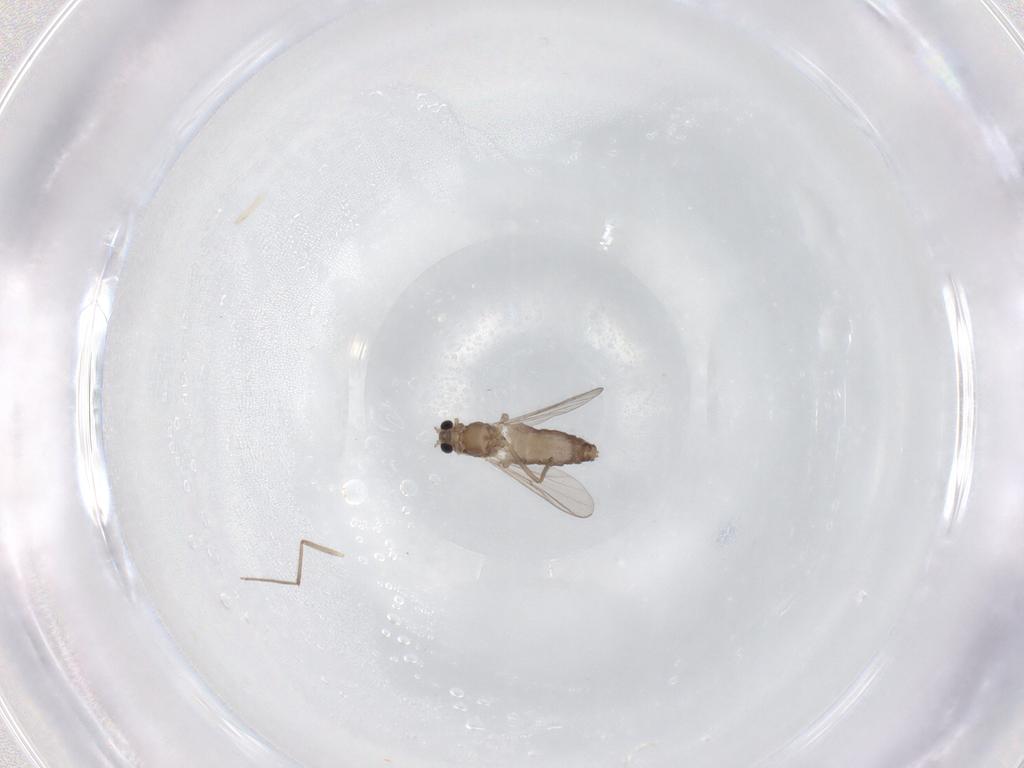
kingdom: Animalia
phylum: Arthropoda
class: Insecta
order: Diptera
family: Chironomidae
